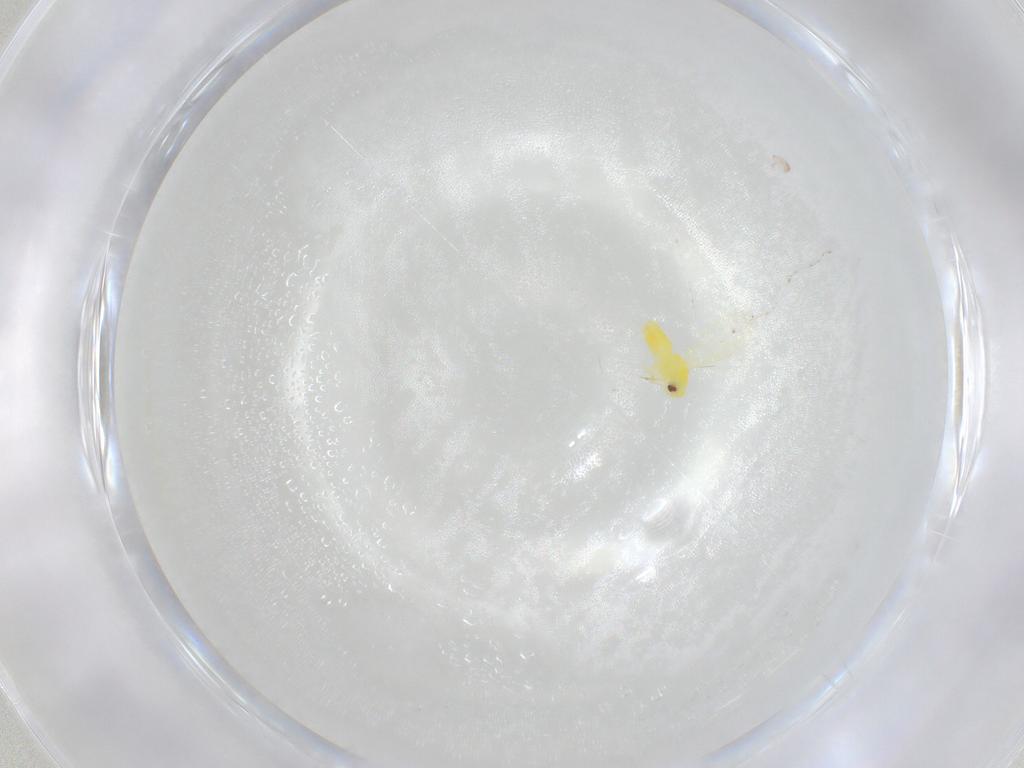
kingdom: Animalia
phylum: Arthropoda
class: Insecta
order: Hemiptera
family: Aleyrodidae
